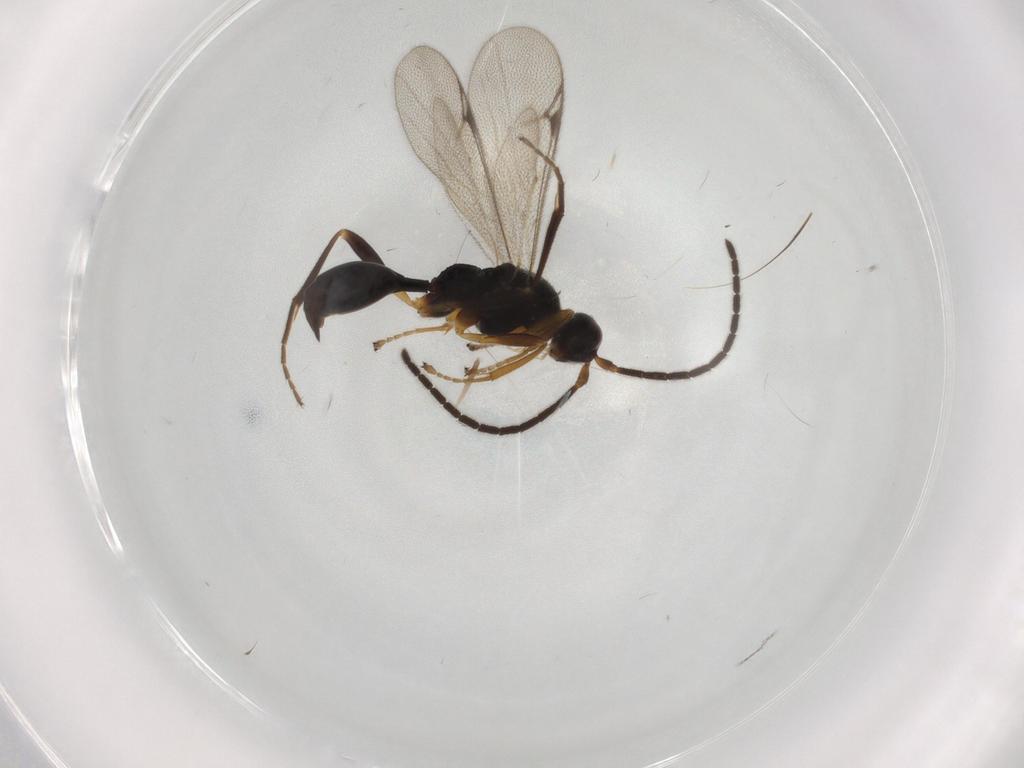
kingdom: Animalia
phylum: Arthropoda
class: Insecta
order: Hymenoptera
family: Proctotrupidae
